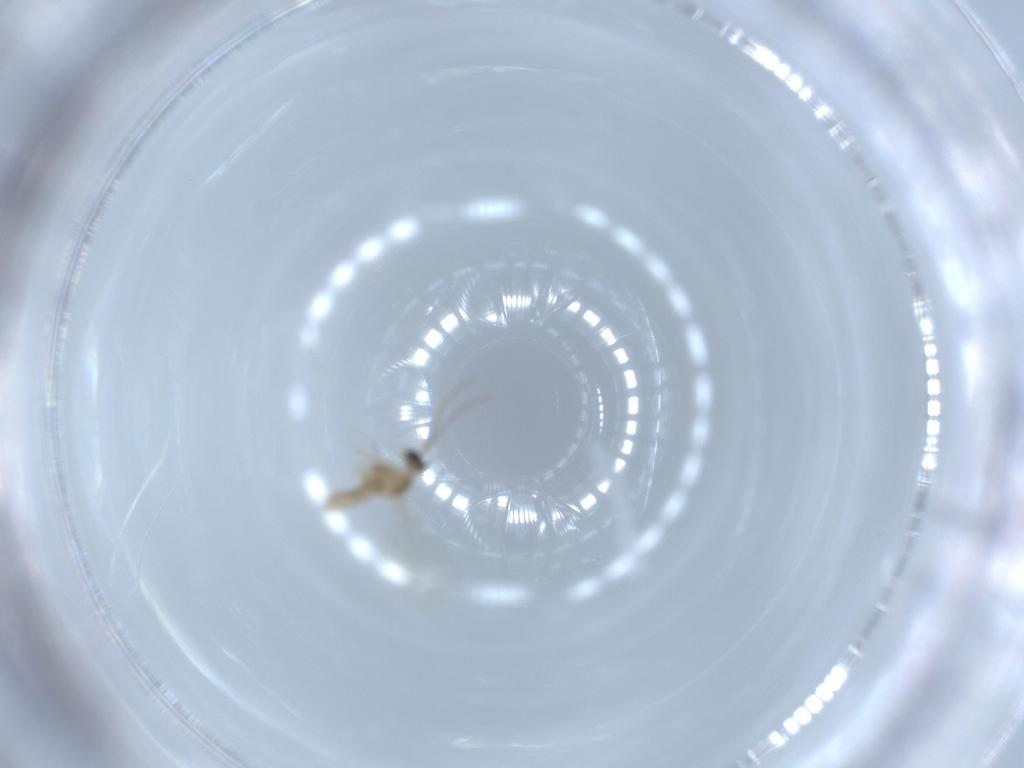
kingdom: Animalia
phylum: Arthropoda
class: Insecta
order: Diptera
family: Cecidomyiidae
